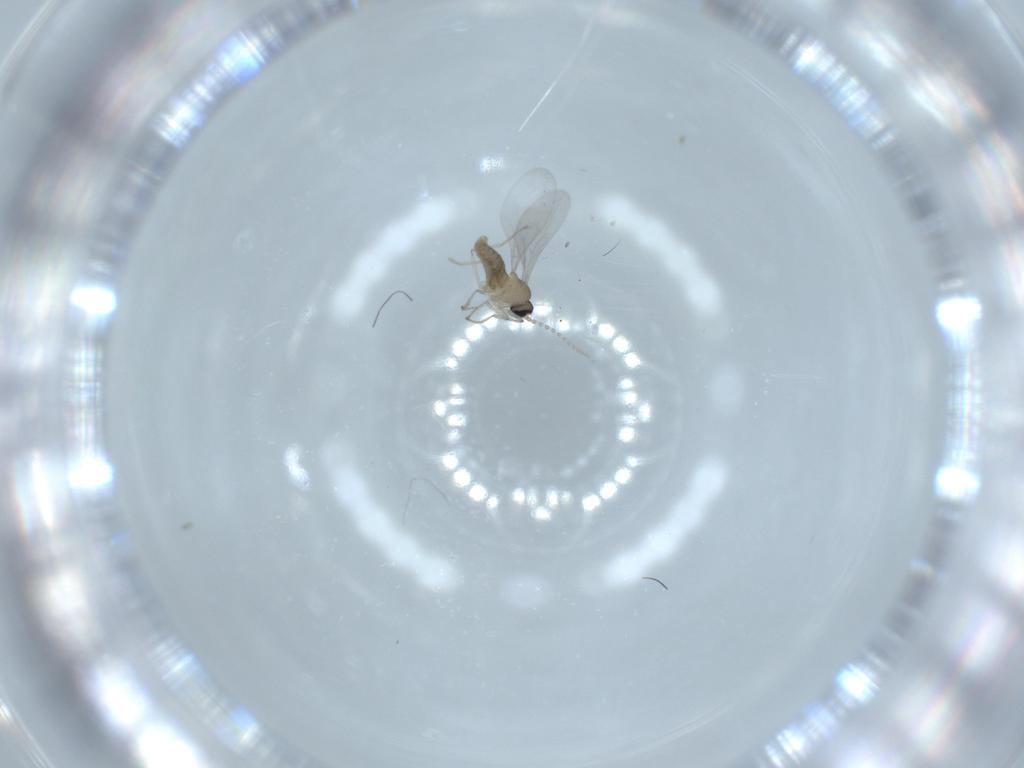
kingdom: Animalia
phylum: Arthropoda
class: Insecta
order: Diptera
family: Cecidomyiidae
